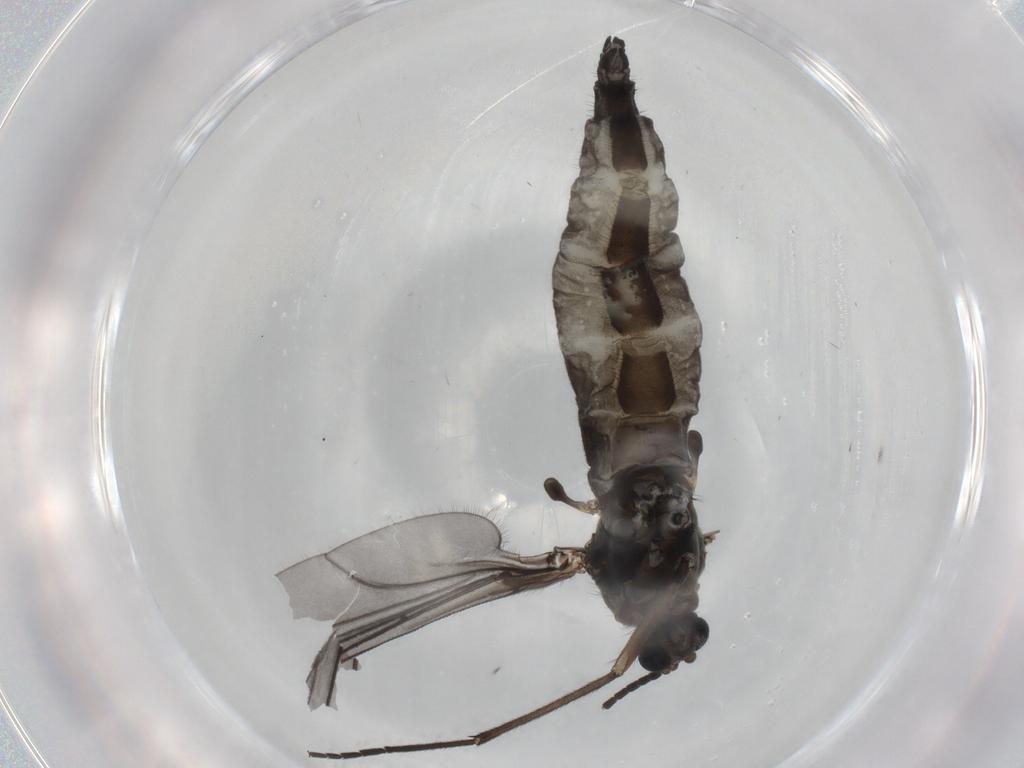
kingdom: Animalia
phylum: Arthropoda
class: Insecta
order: Diptera
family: Sciaridae
